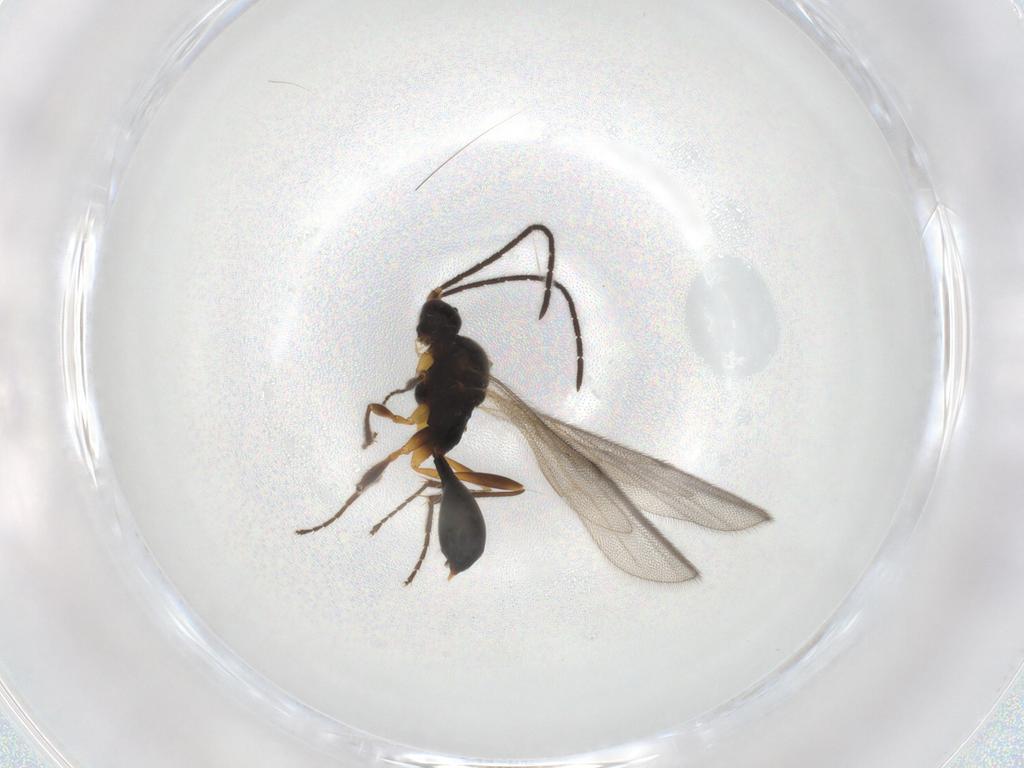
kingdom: Animalia
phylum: Arthropoda
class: Insecta
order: Hymenoptera
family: Proctotrupidae
